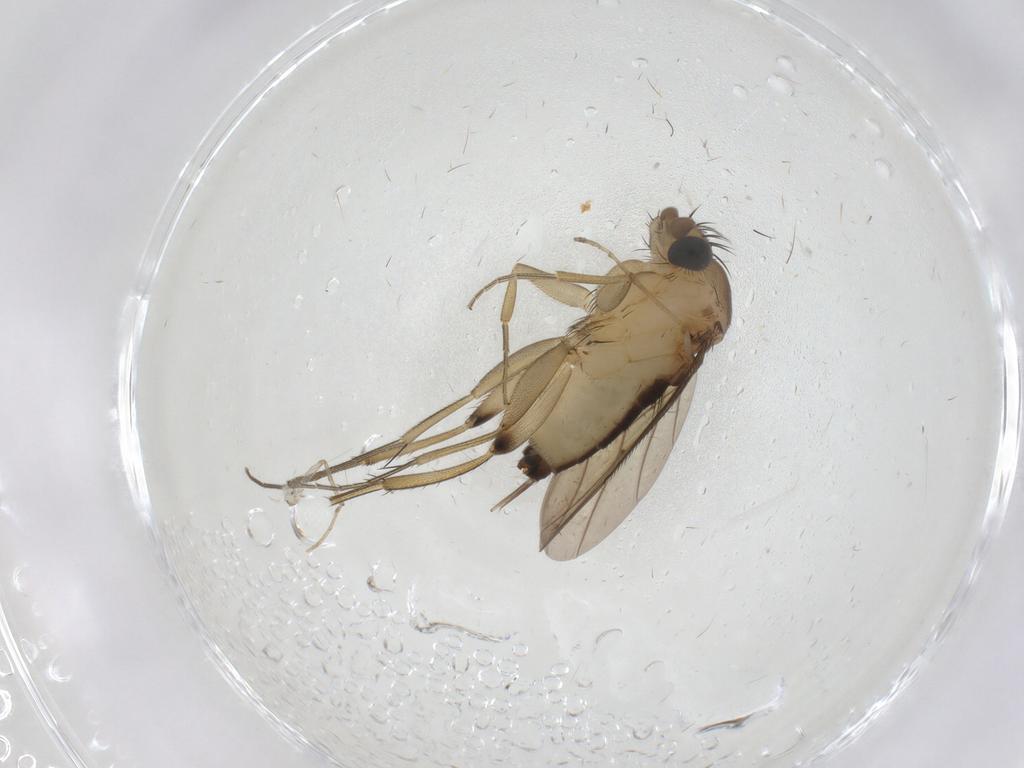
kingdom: Animalia
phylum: Arthropoda
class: Insecta
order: Diptera
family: Phoridae
